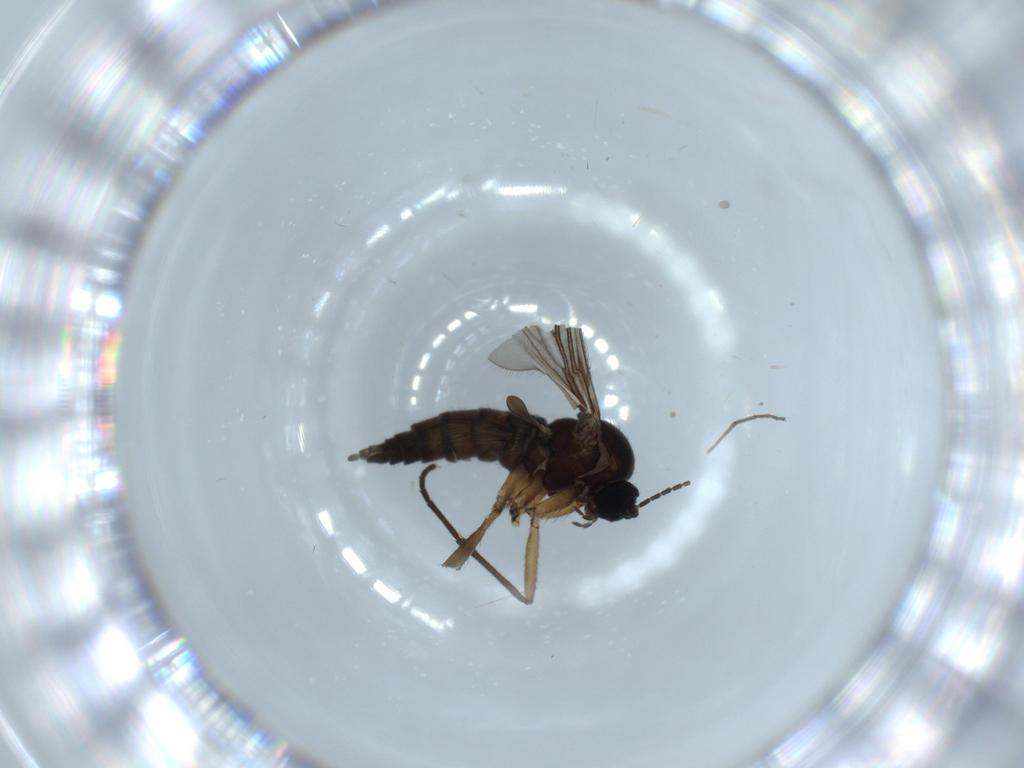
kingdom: Animalia
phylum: Arthropoda
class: Insecta
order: Diptera
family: Sciaridae
